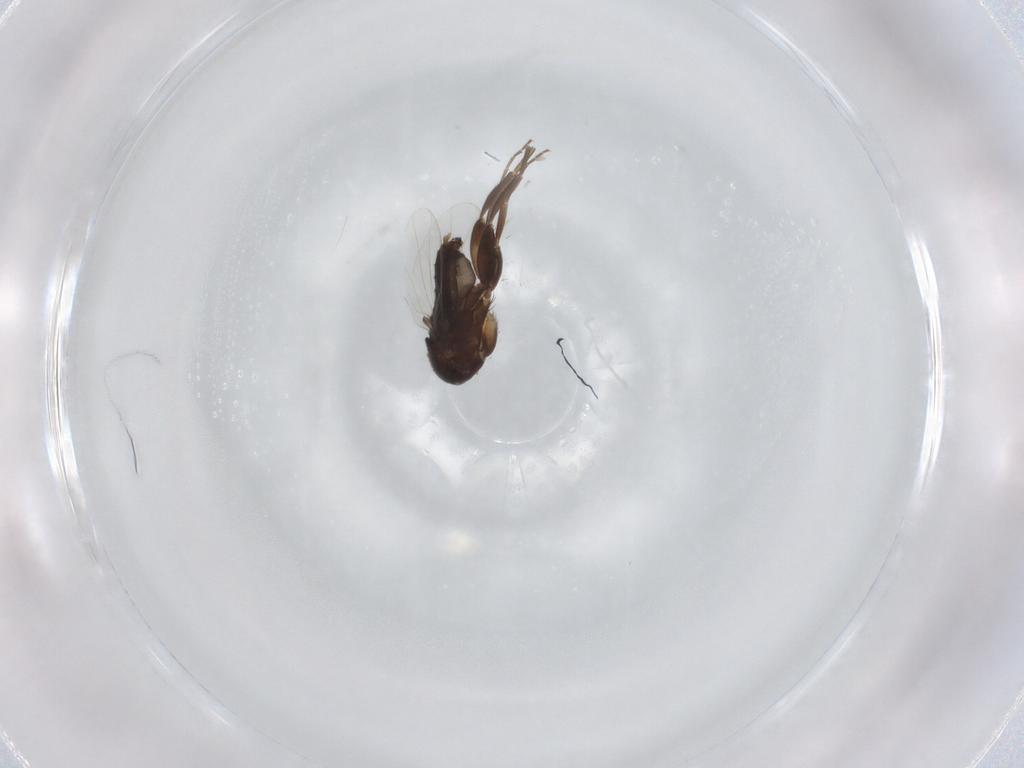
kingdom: Animalia
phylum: Arthropoda
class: Insecta
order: Diptera
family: Phoridae
